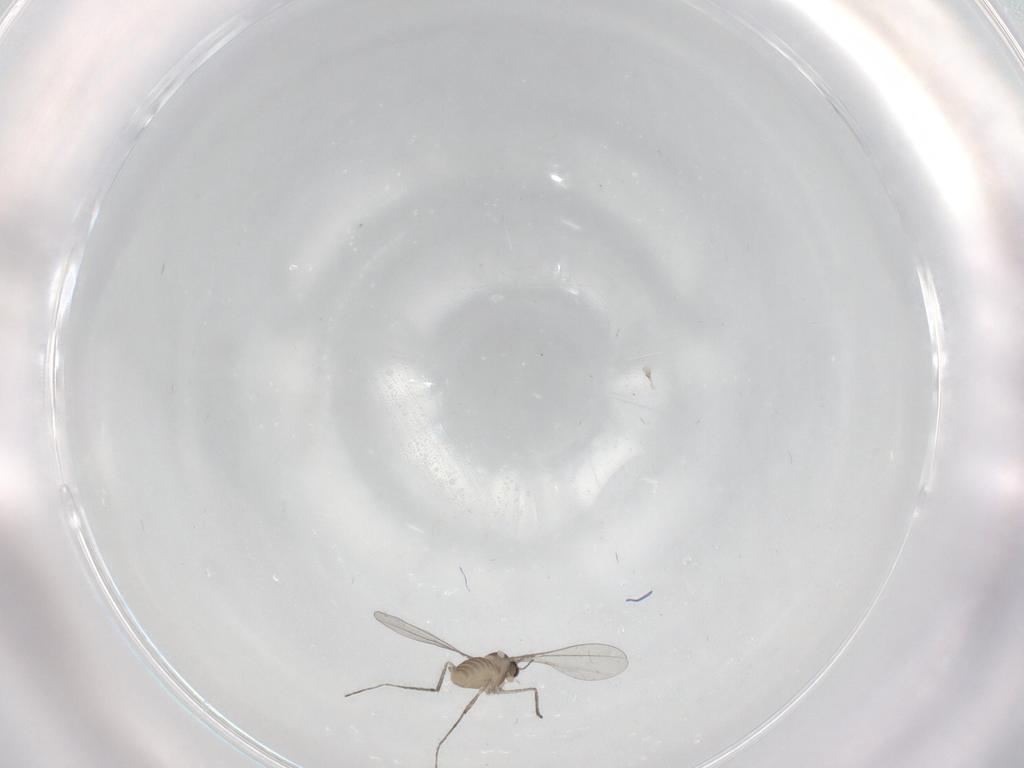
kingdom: Animalia
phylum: Arthropoda
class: Insecta
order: Diptera
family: Cecidomyiidae
